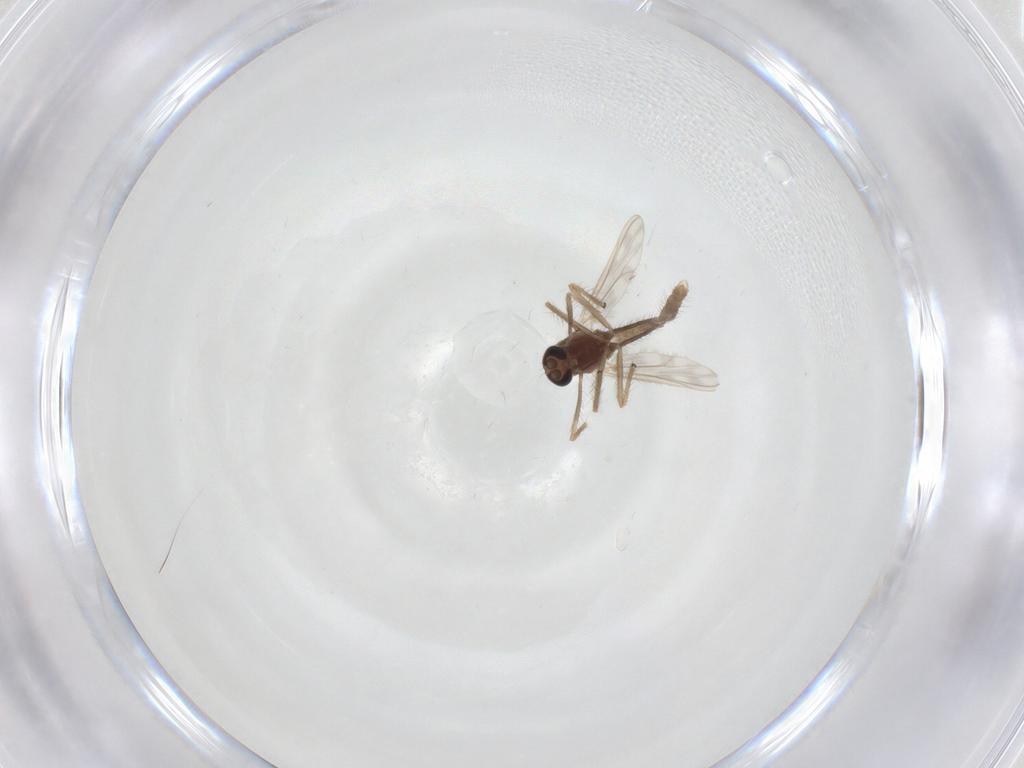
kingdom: Animalia
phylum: Arthropoda
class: Insecta
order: Diptera
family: Chironomidae
